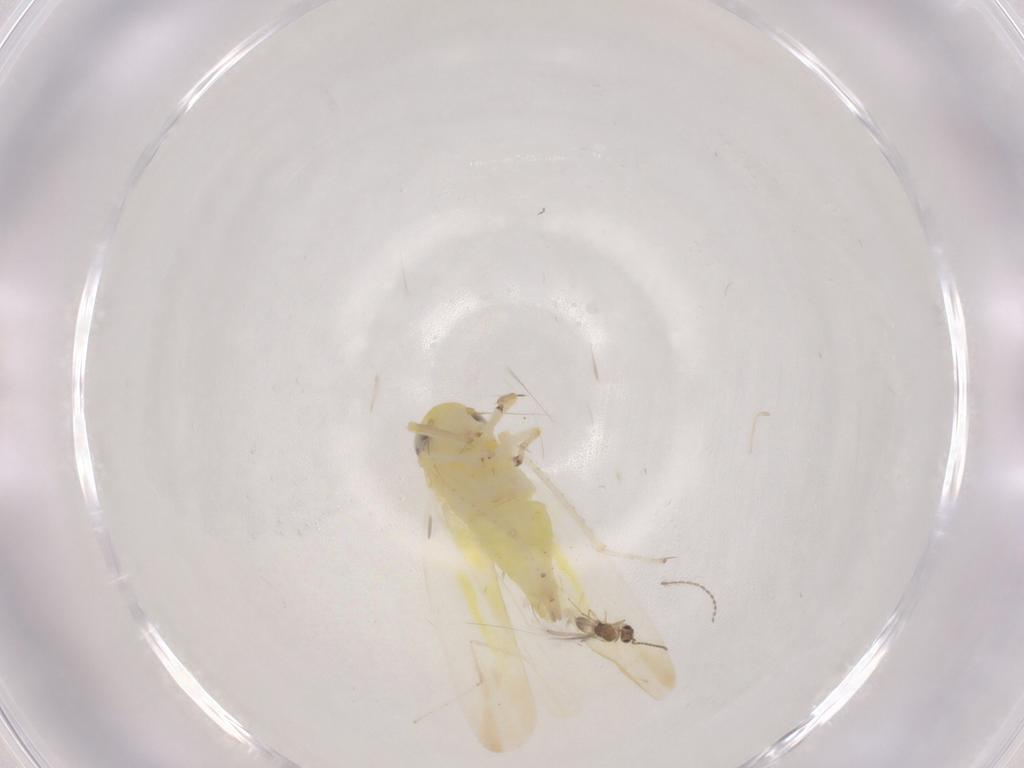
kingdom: Animalia
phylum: Arthropoda
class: Insecta
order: Hemiptera
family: Cicadellidae
